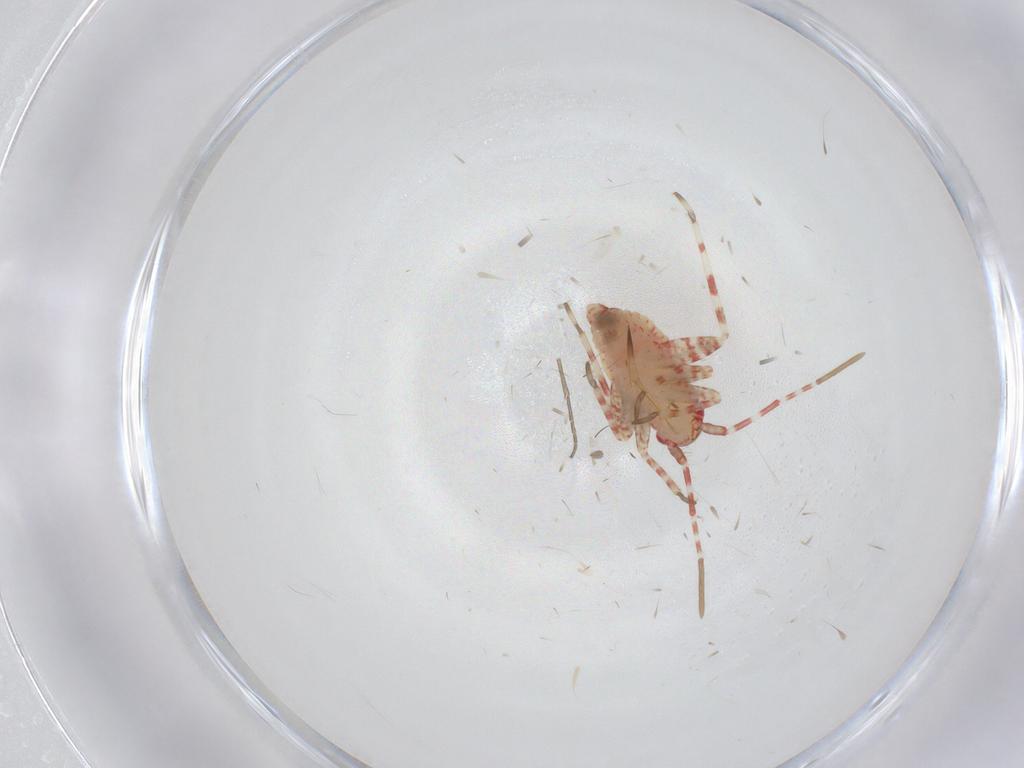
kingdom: Animalia
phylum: Arthropoda
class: Insecta
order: Hemiptera
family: Miridae
